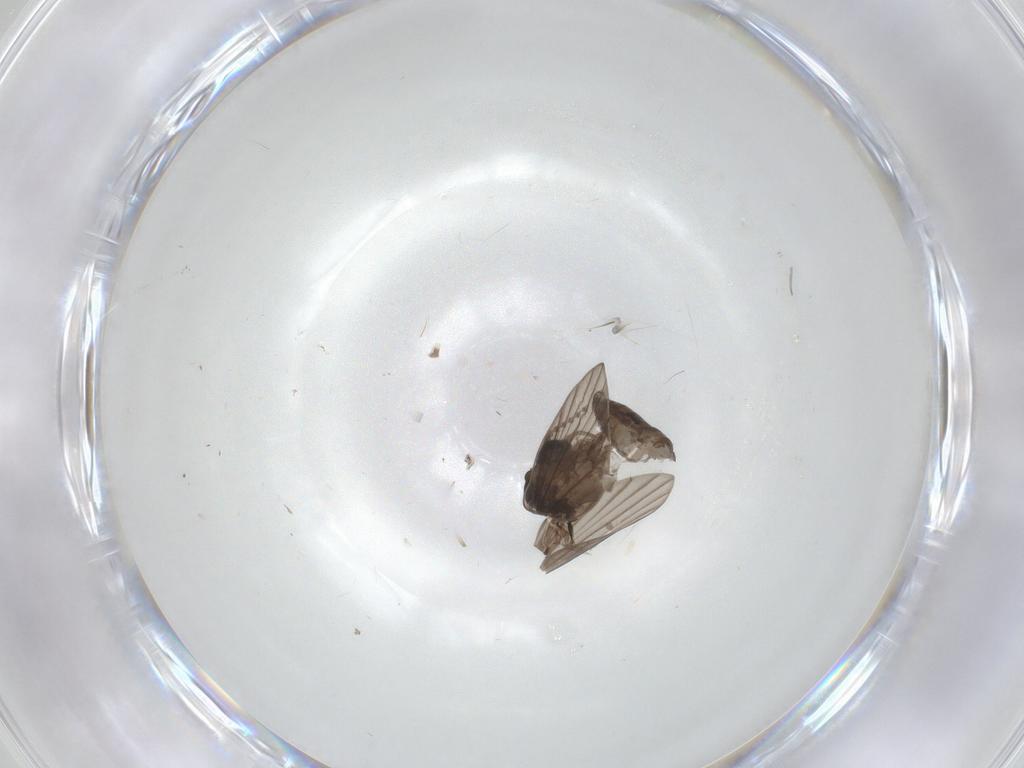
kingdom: Animalia
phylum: Arthropoda
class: Insecta
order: Diptera
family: Psychodidae
